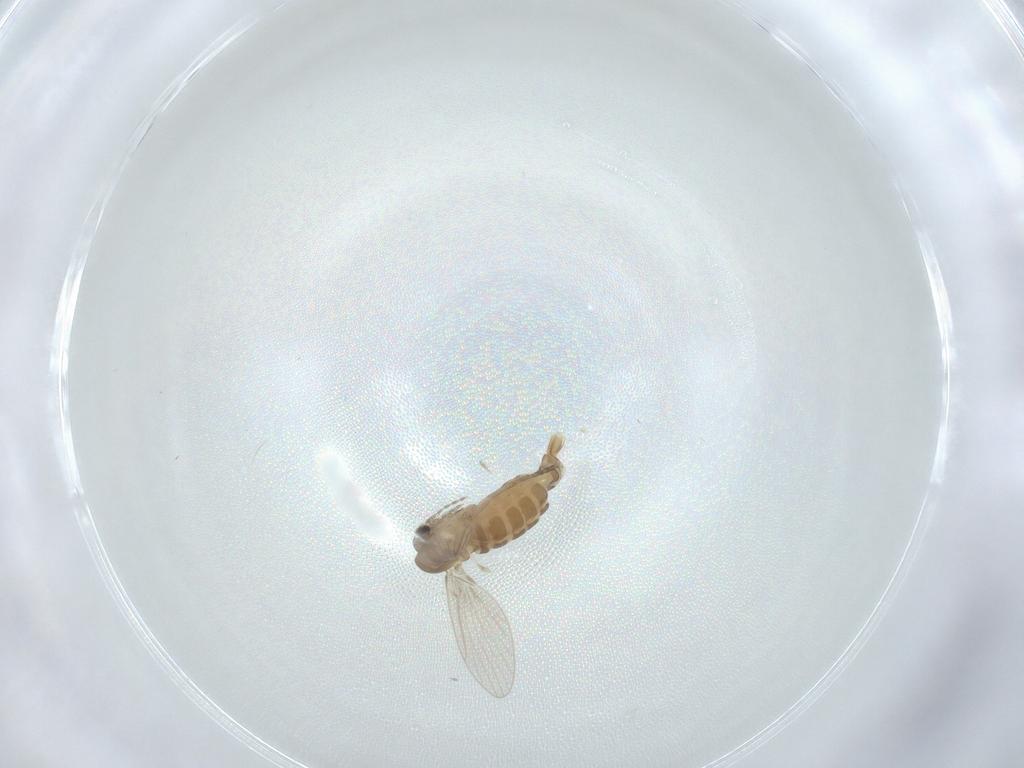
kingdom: Animalia
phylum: Arthropoda
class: Insecta
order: Diptera
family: Psychodidae
